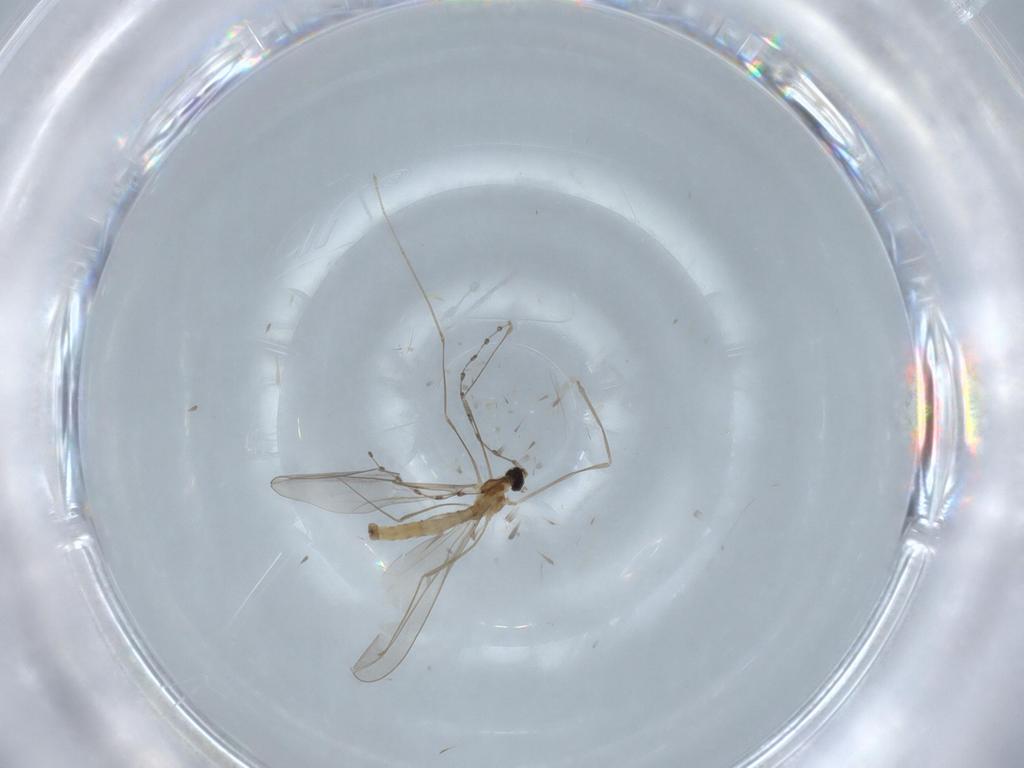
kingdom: Animalia
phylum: Arthropoda
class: Insecta
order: Diptera
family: Cecidomyiidae
